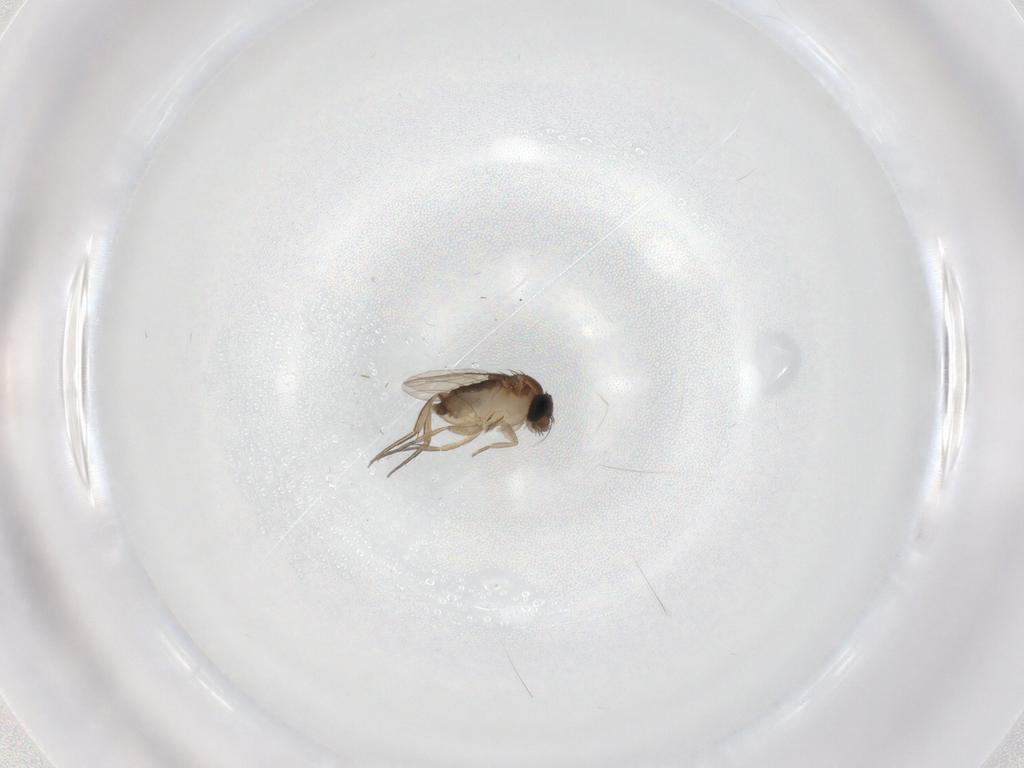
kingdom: Animalia
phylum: Arthropoda
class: Insecta
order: Diptera
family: Phoridae
